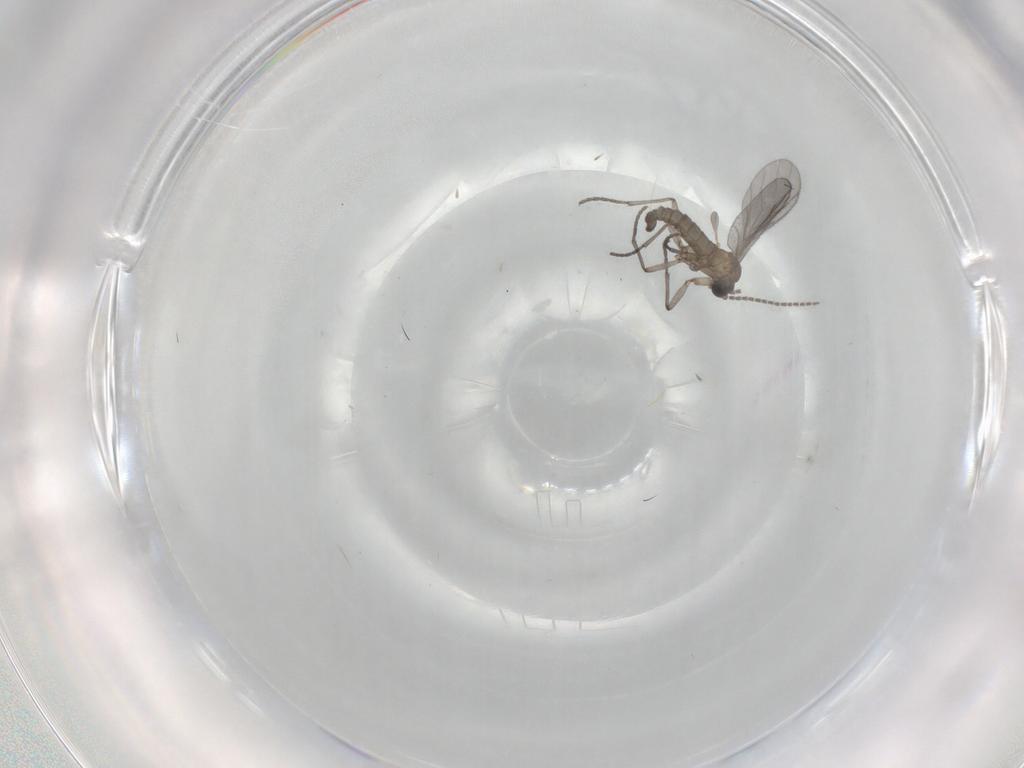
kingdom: Animalia
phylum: Arthropoda
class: Insecta
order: Diptera
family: Sciaridae
